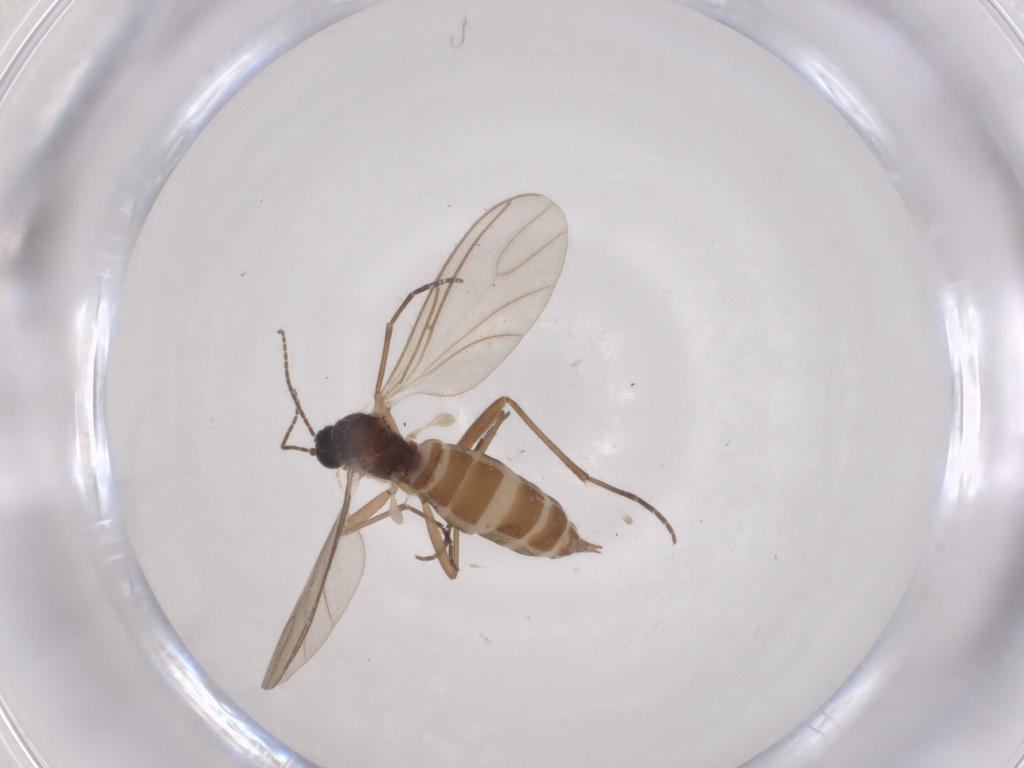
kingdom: Animalia
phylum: Arthropoda
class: Insecta
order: Diptera
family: Sciaridae
